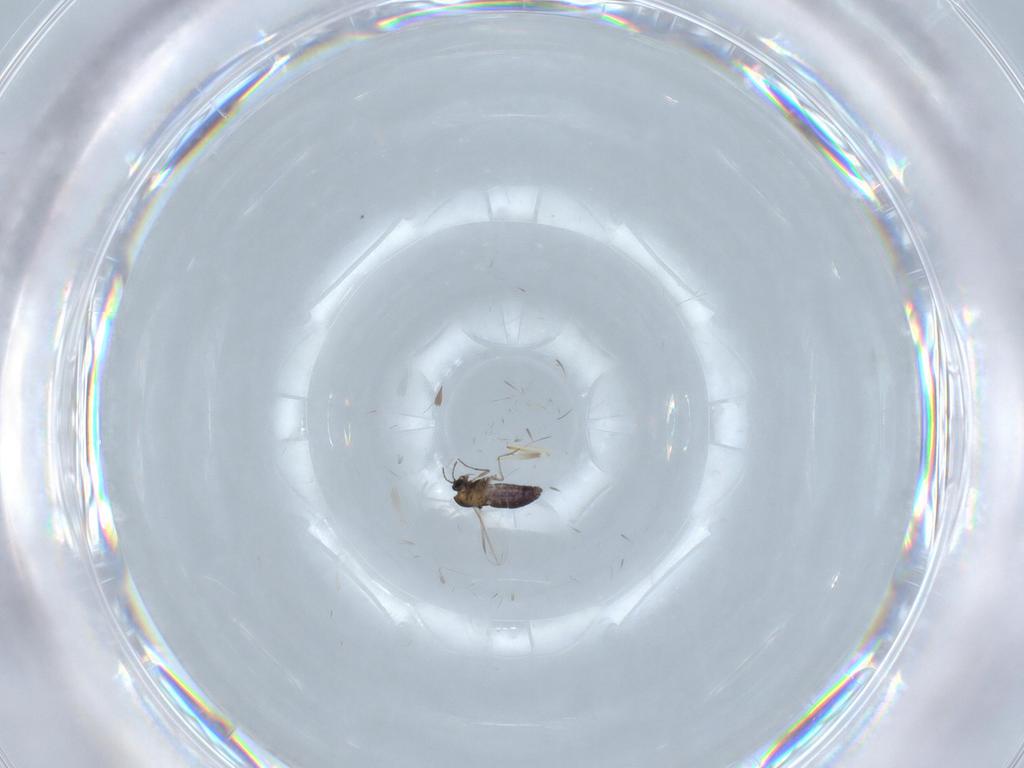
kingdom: Animalia
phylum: Arthropoda
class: Insecta
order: Diptera
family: Chironomidae
